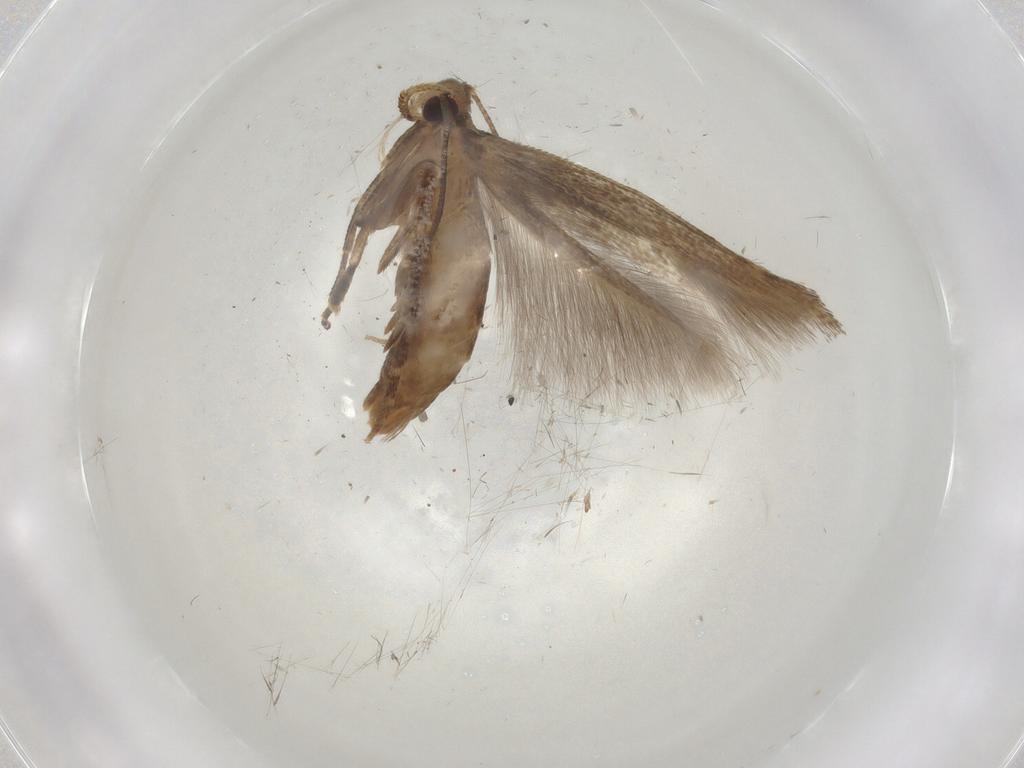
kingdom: Animalia
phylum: Arthropoda
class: Insecta
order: Lepidoptera
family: Cosmopterigidae
